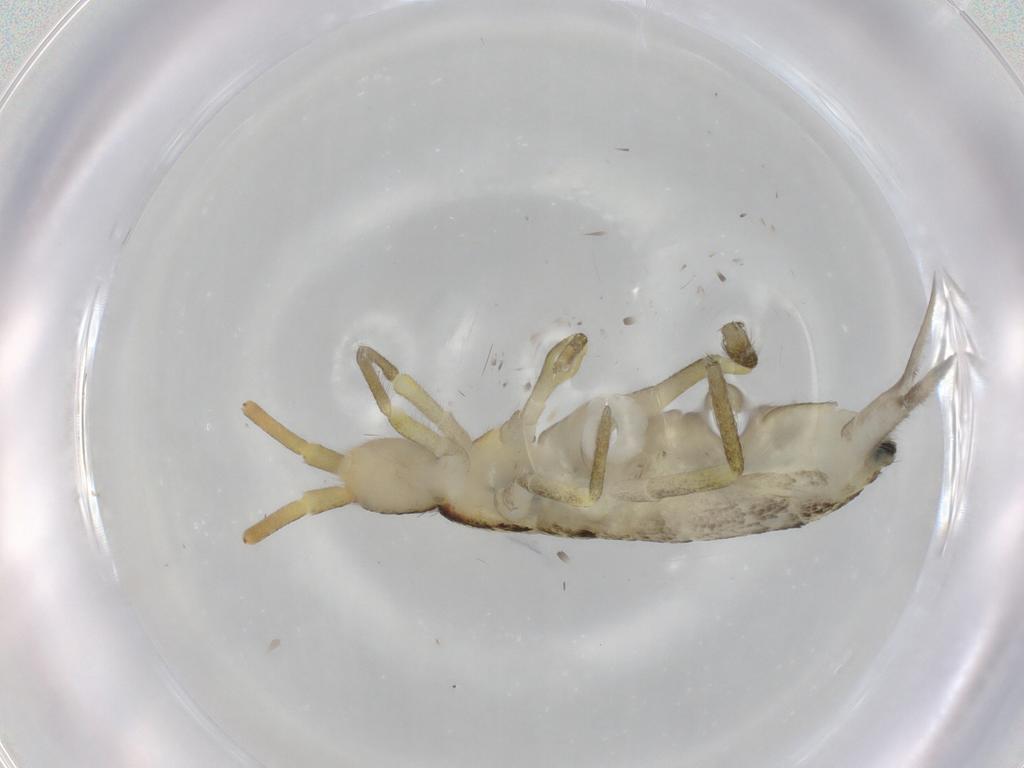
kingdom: Animalia
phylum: Arthropoda
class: Collembola
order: Entomobryomorpha
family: Tomoceridae
